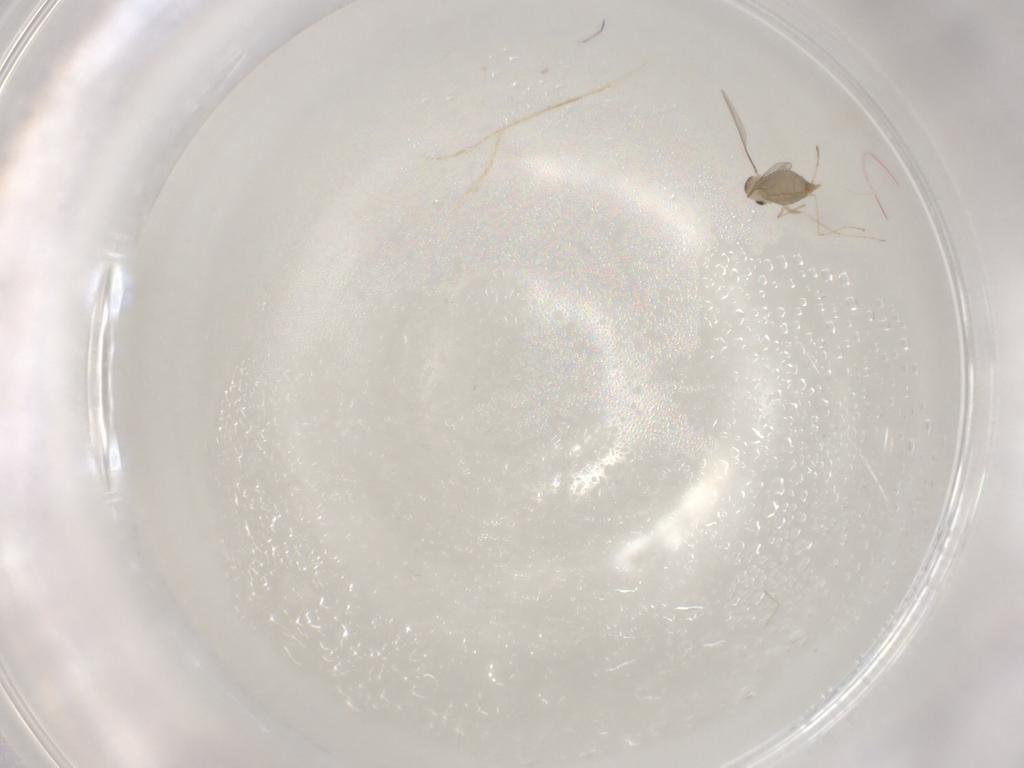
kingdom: Animalia
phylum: Arthropoda
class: Insecta
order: Diptera
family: Cecidomyiidae
